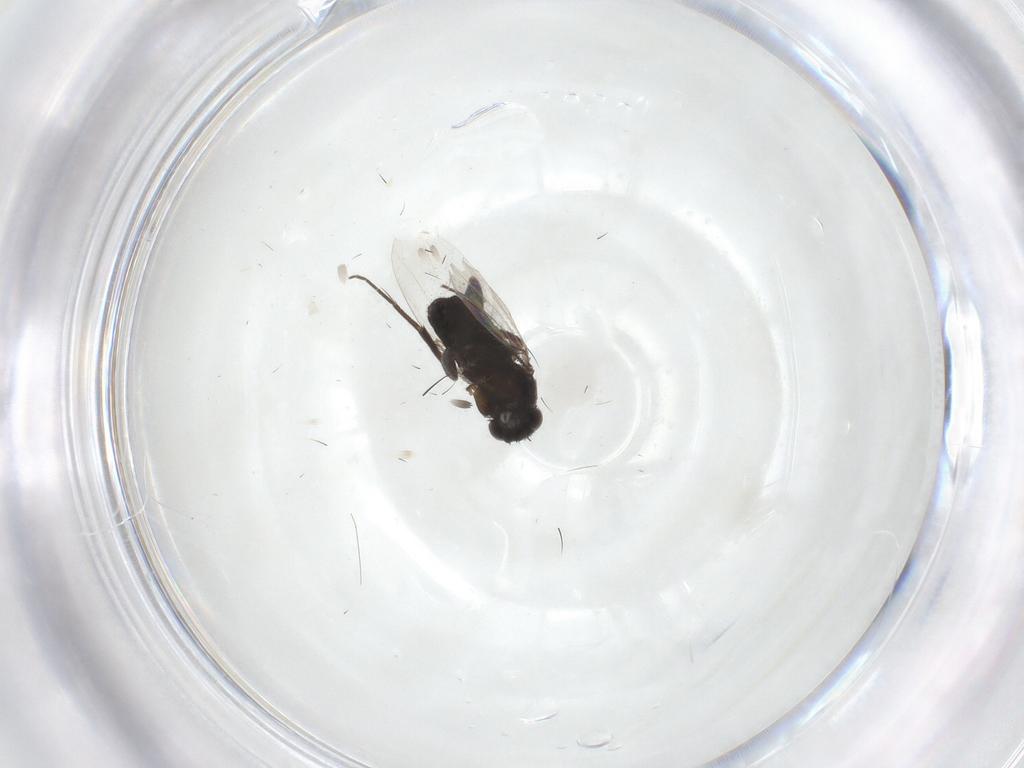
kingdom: Animalia
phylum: Arthropoda
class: Insecta
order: Diptera
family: Phoridae
